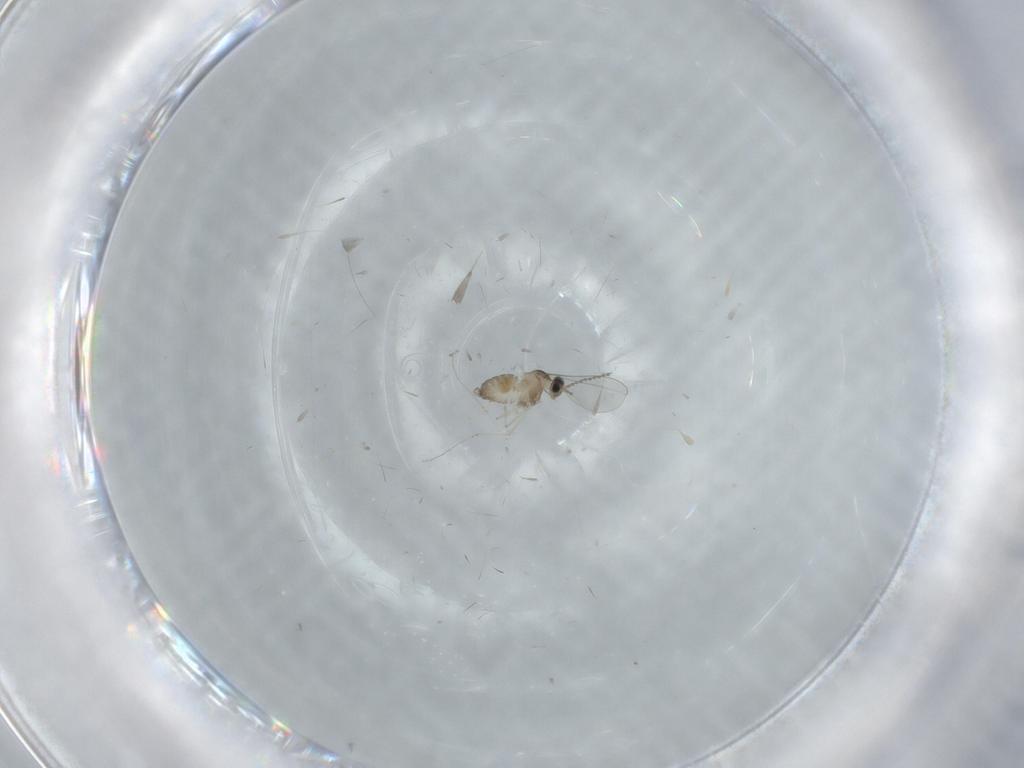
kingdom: Animalia
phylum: Arthropoda
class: Insecta
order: Diptera
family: Cecidomyiidae
